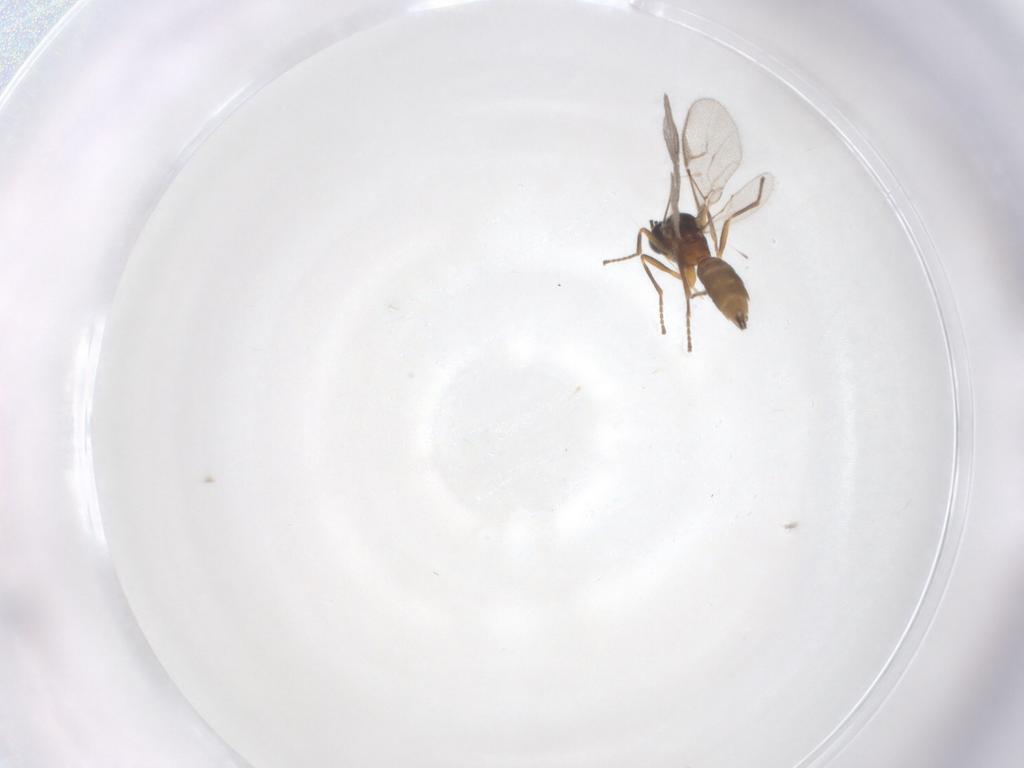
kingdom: Animalia
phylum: Arthropoda
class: Insecta
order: Hymenoptera
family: Braconidae
